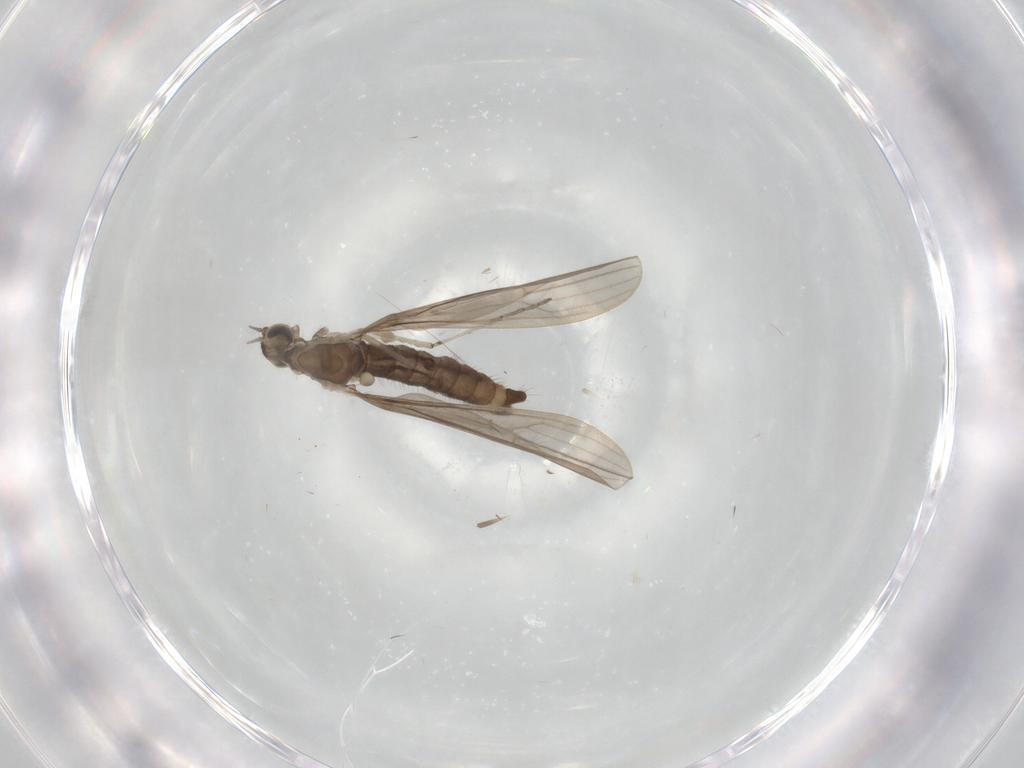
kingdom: Animalia
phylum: Arthropoda
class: Insecta
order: Diptera
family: Limoniidae
